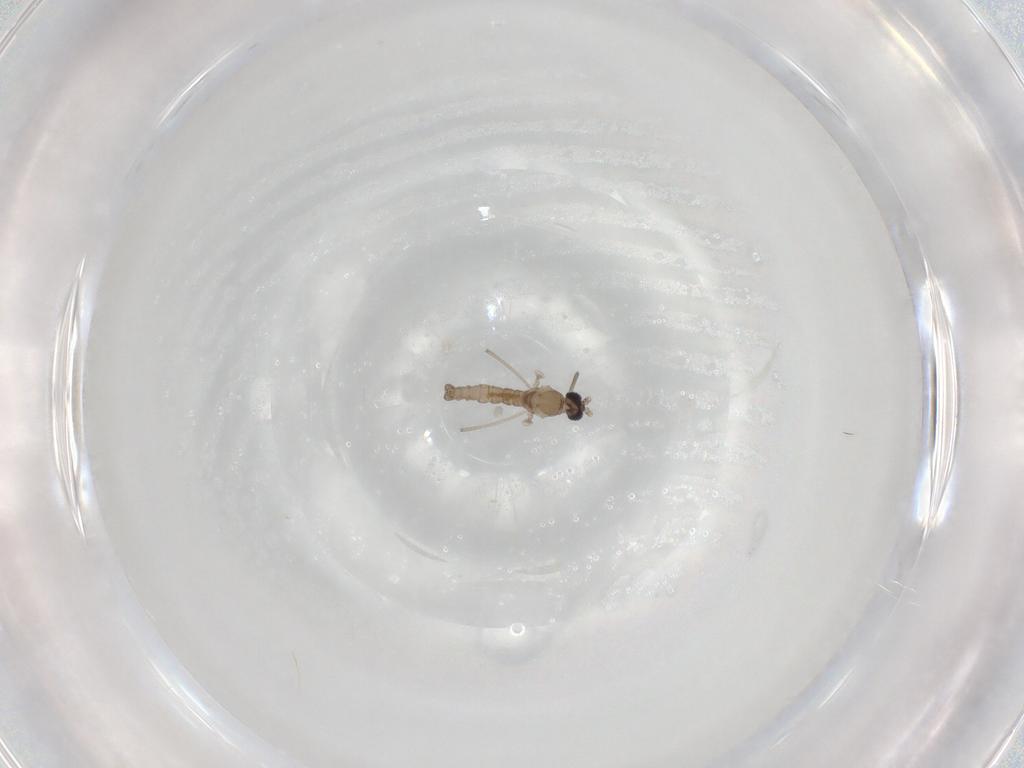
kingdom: Animalia
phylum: Arthropoda
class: Insecta
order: Diptera
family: Cecidomyiidae
